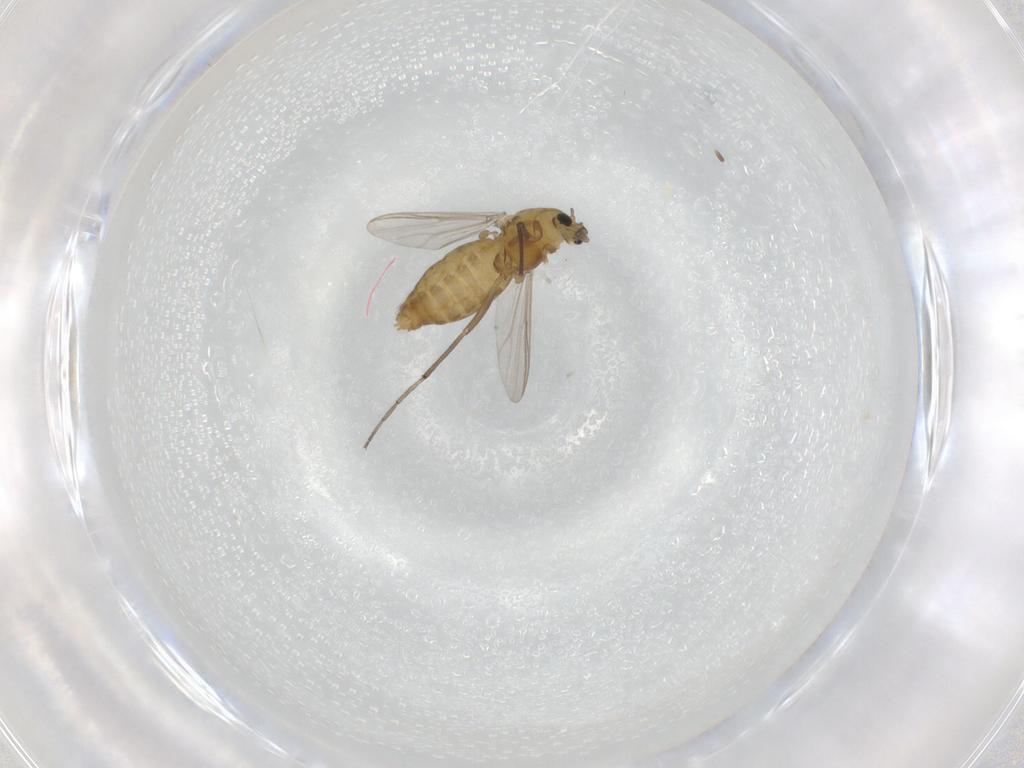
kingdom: Animalia
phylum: Arthropoda
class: Insecta
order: Diptera
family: Chironomidae
